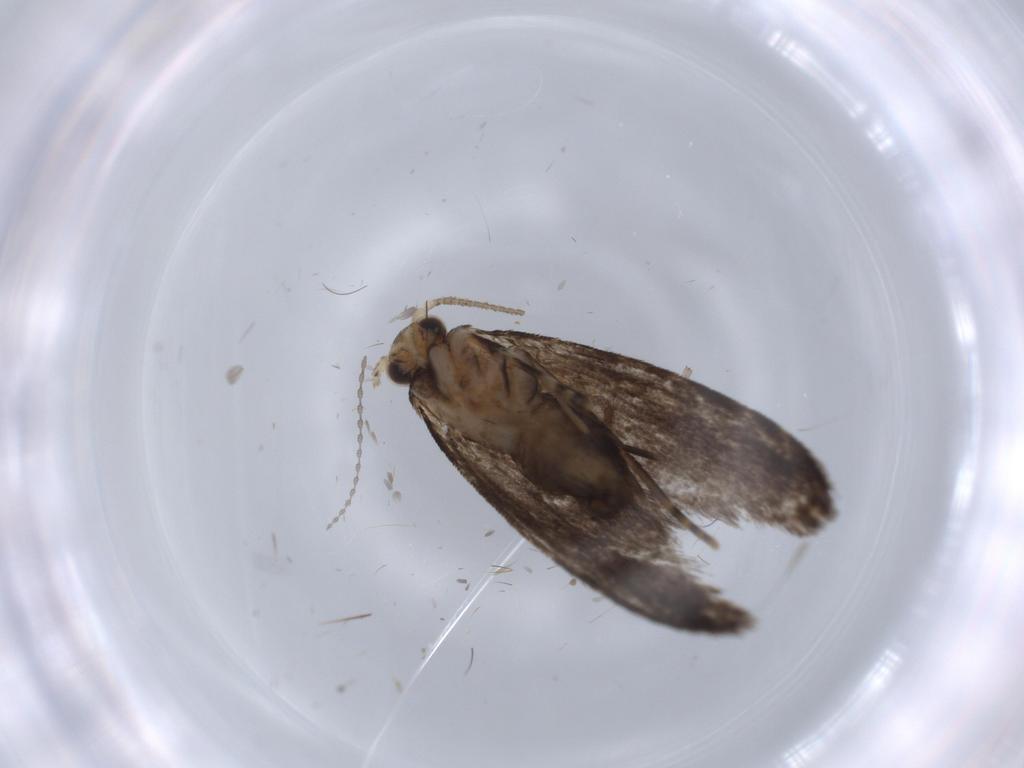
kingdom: Animalia
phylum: Arthropoda
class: Insecta
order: Lepidoptera
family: Tineidae
